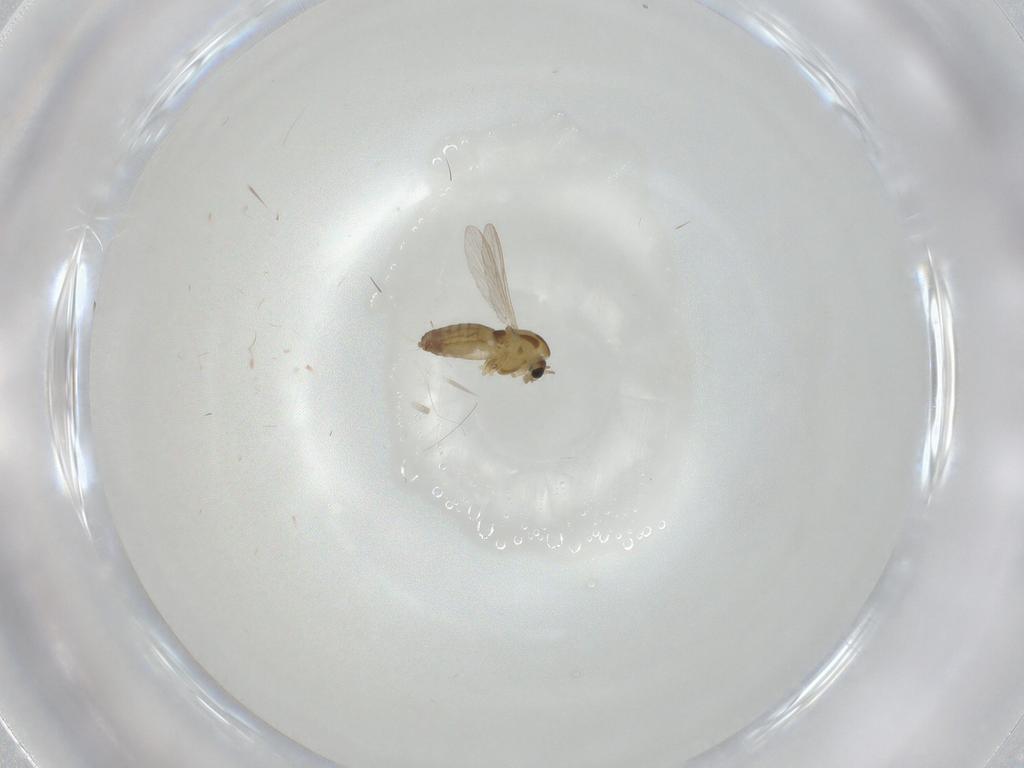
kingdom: Animalia
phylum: Arthropoda
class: Insecta
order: Diptera
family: Chironomidae
